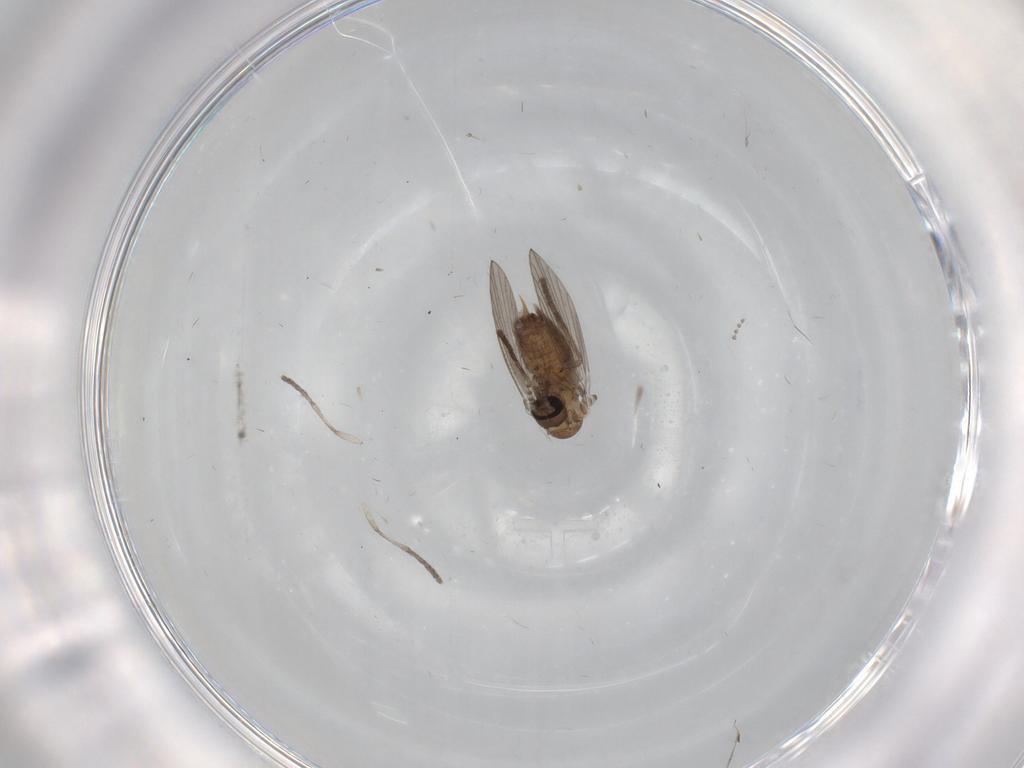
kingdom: Animalia
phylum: Arthropoda
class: Insecta
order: Diptera
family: Psychodidae
